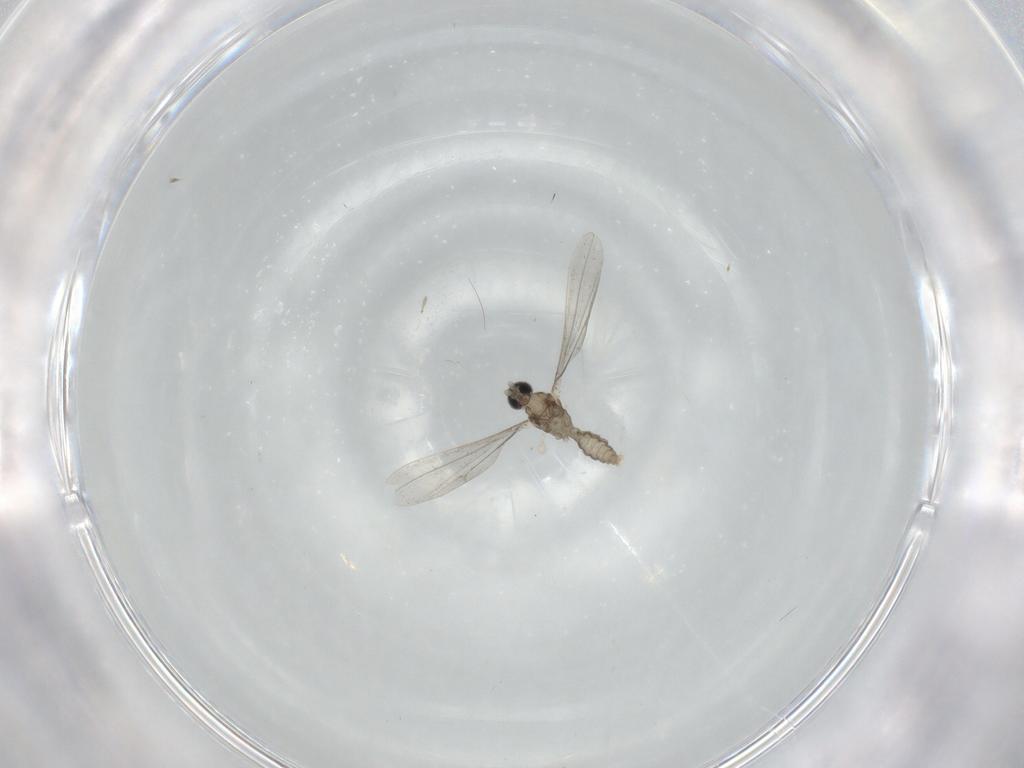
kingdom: Animalia
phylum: Arthropoda
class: Insecta
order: Diptera
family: Cecidomyiidae
